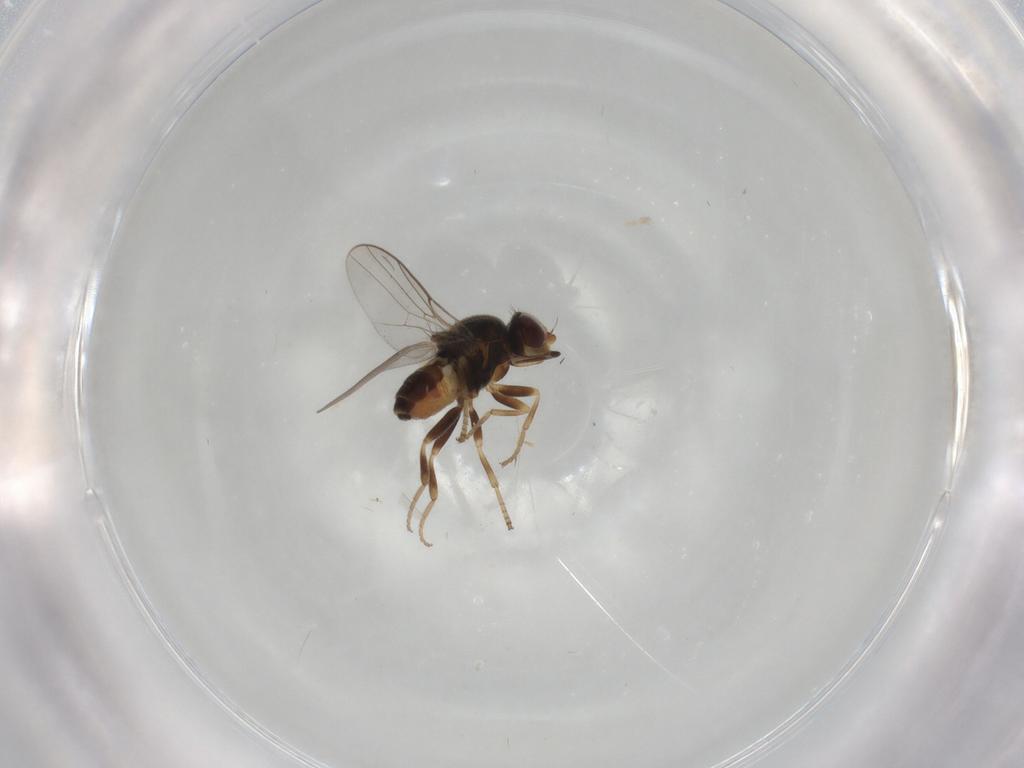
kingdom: Animalia
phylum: Arthropoda
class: Insecta
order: Diptera
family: Chloropidae
